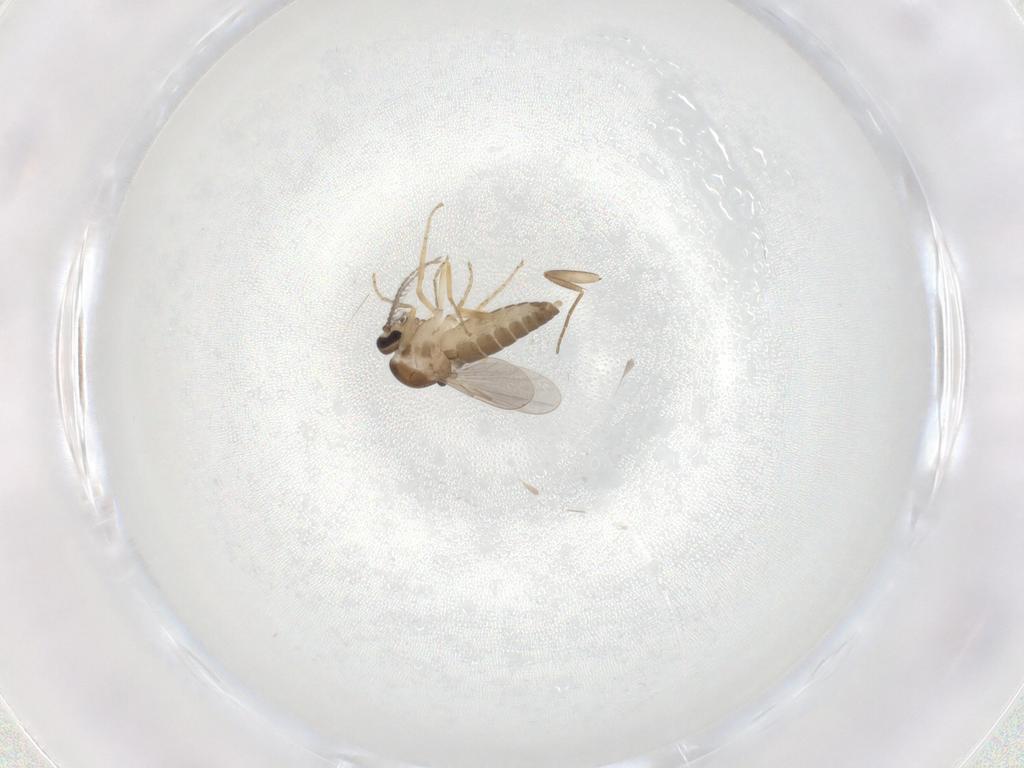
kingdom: Animalia
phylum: Arthropoda
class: Insecta
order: Diptera
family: Ceratopogonidae
